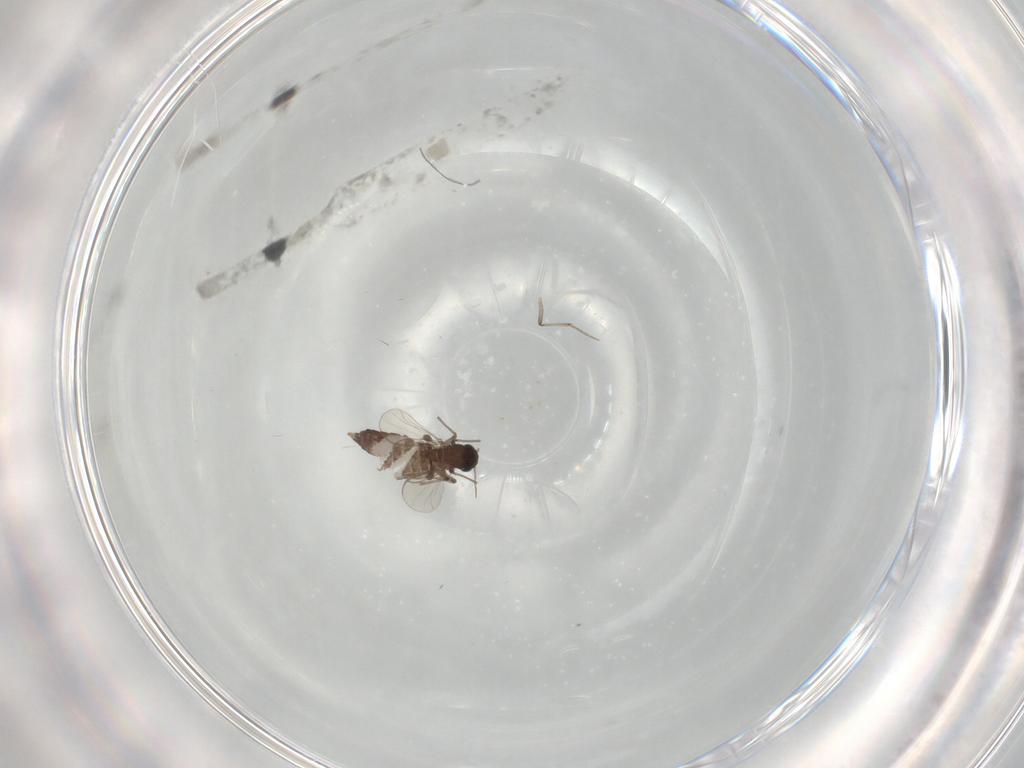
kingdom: Animalia
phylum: Arthropoda
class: Insecta
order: Diptera
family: Chironomidae
